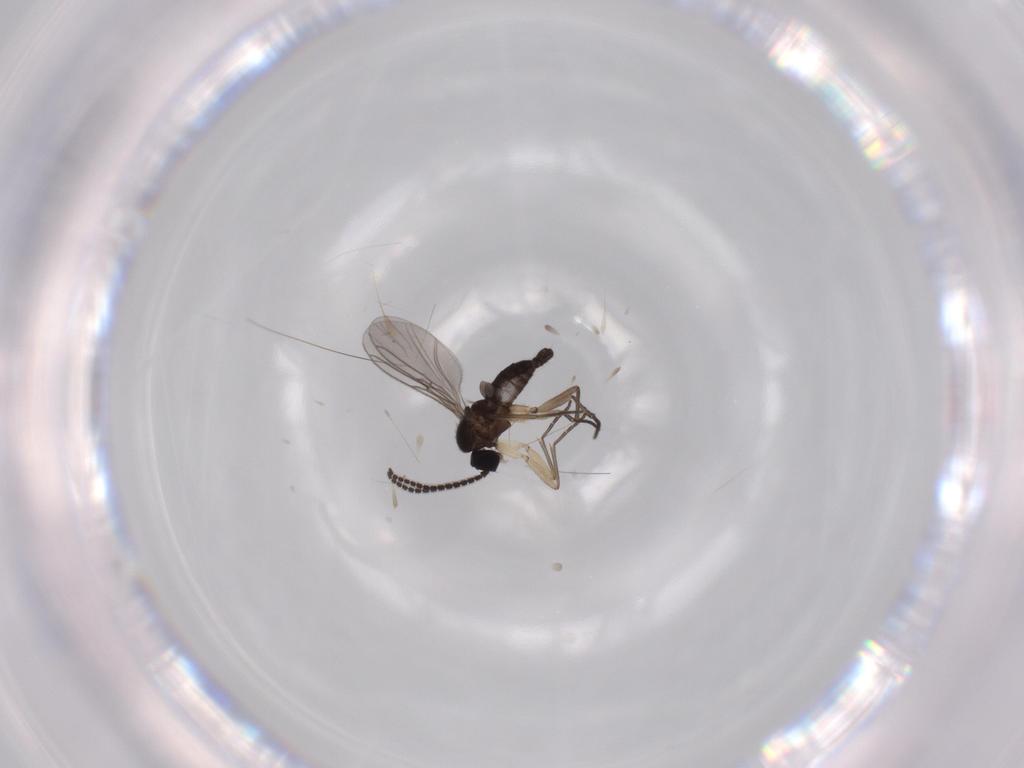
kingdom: Animalia
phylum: Arthropoda
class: Insecta
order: Diptera
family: Sciaridae
